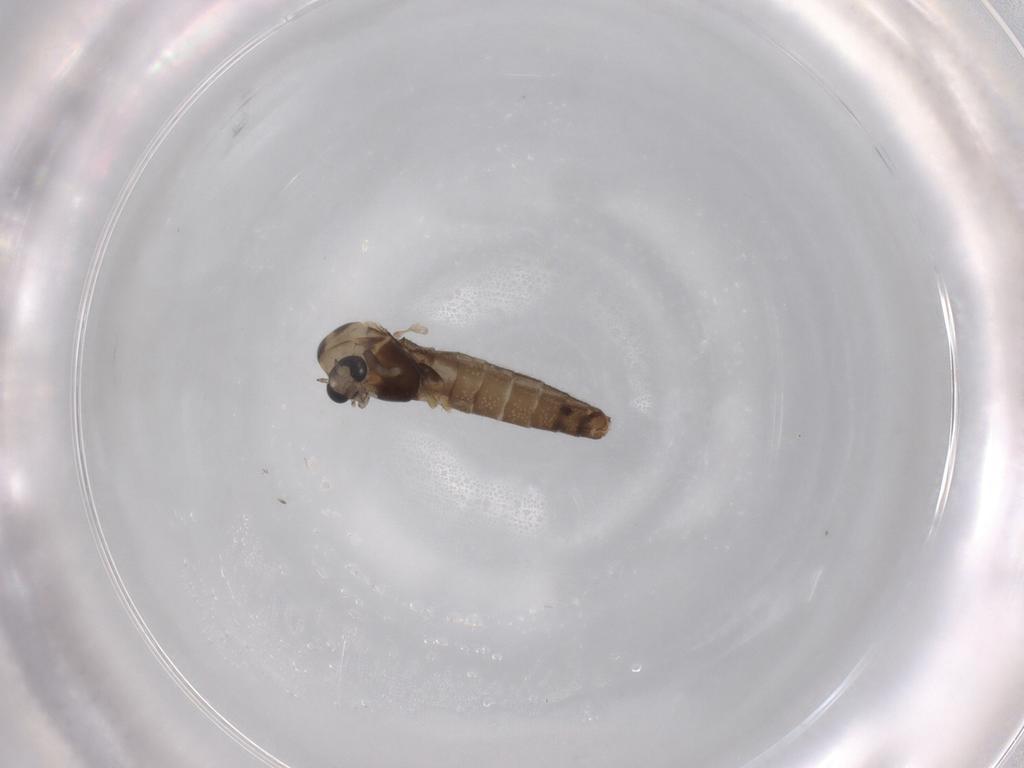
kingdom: Animalia
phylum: Arthropoda
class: Insecta
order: Diptera
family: Chironomidae
